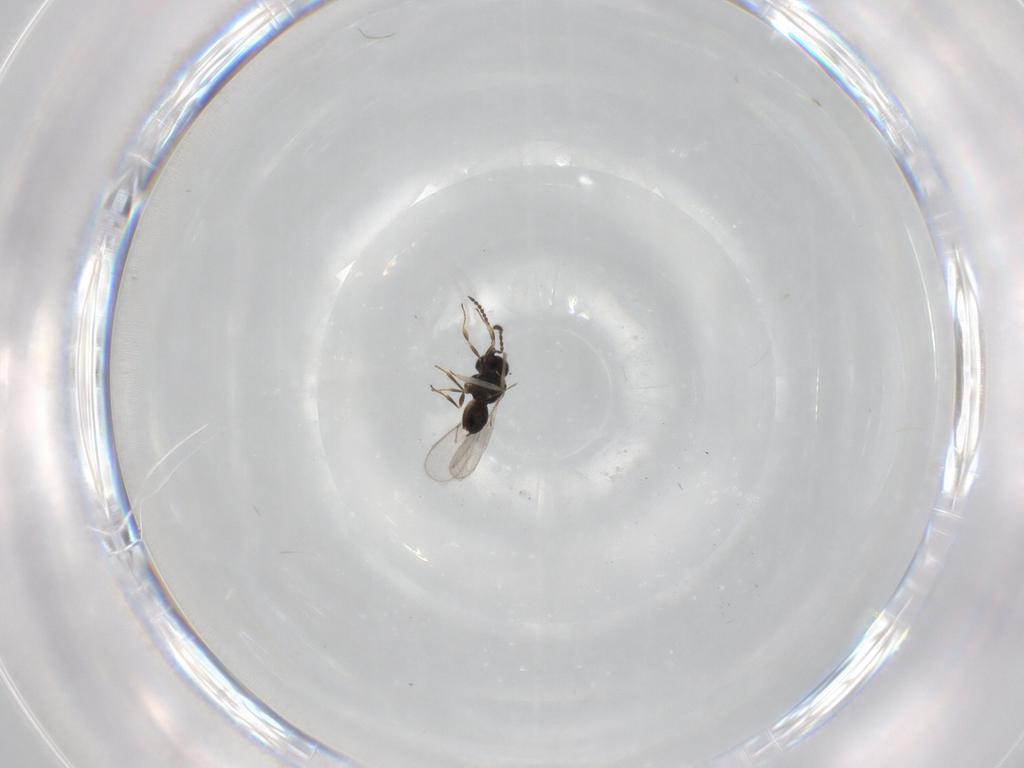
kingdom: Animalia
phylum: Arthropoda
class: Insecta
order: Hymenoptera
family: Scelionidae
